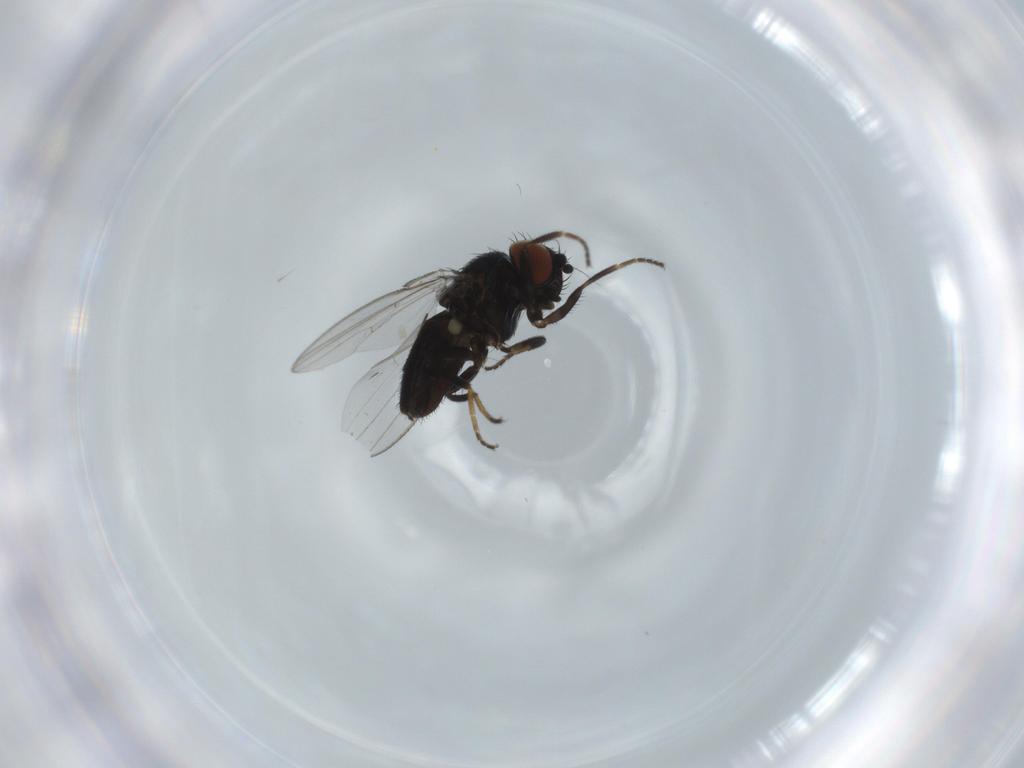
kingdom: Animalia
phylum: Arthropoda
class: Insecta
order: Diptera
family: Milichiidae
